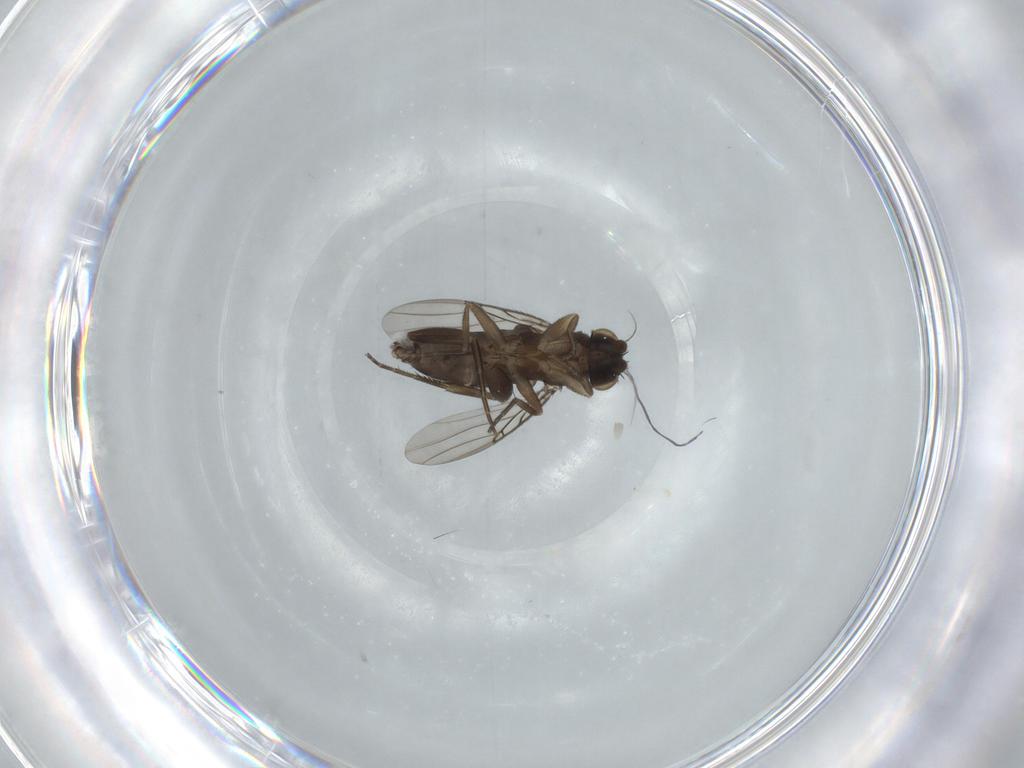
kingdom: Animalia
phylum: Arthropoda
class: Insecta
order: Diptera
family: Phoridae
